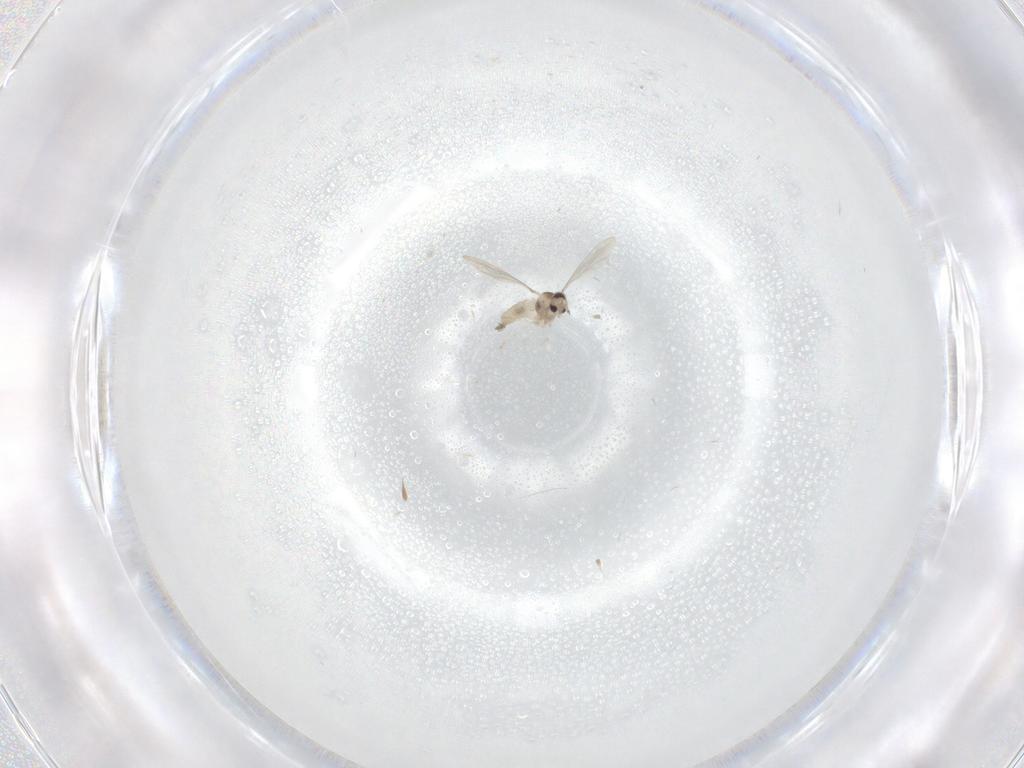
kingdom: Animalia
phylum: Arthropoda
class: Insecta
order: Diptera
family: Cecidomyiidae
